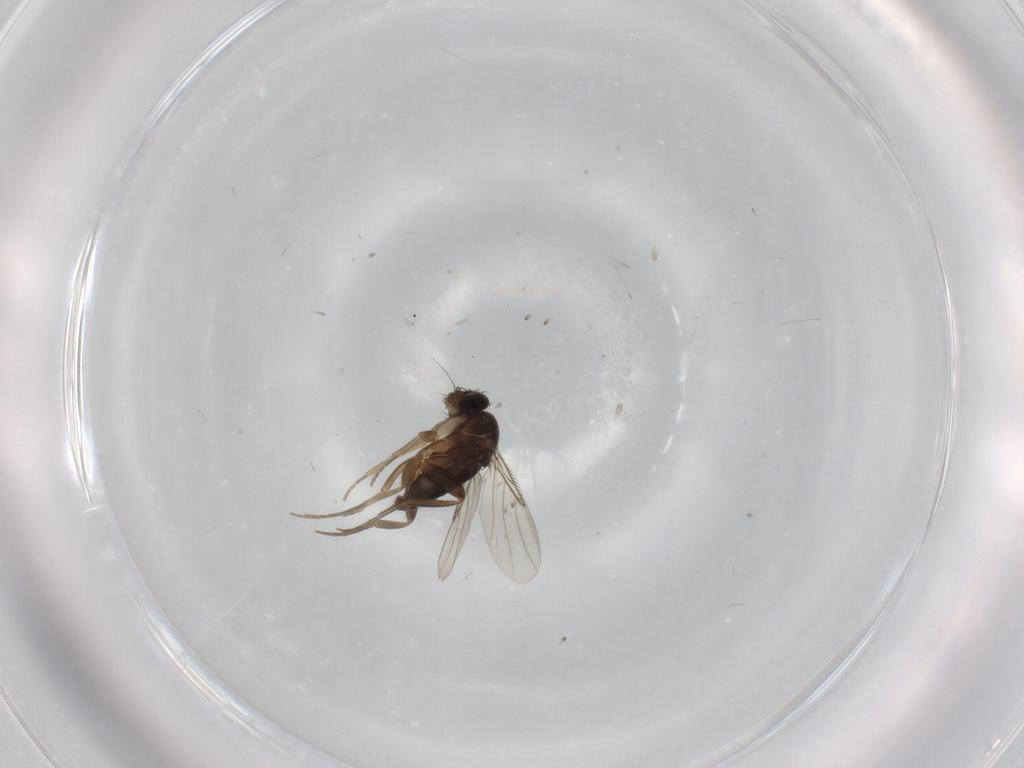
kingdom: Animalia
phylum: Arthropoda
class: Insecta
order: Diptera
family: Phoridae
